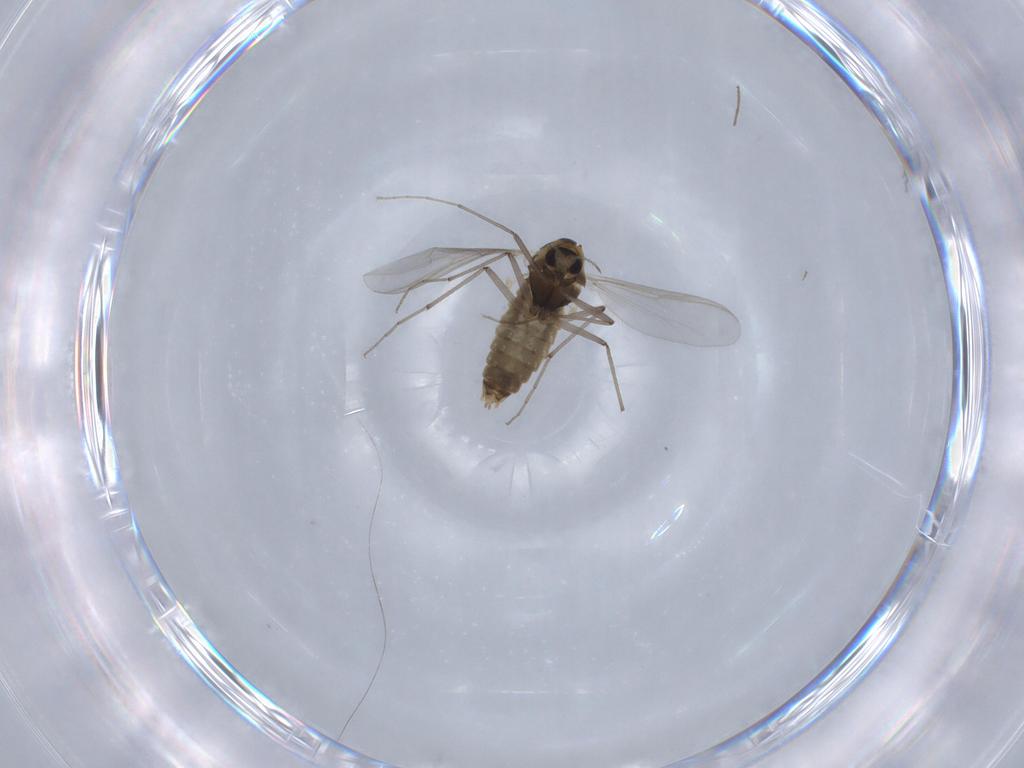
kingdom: Animalia
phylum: Arthropoda
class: Insecta
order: Diptera
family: Chironomidae
